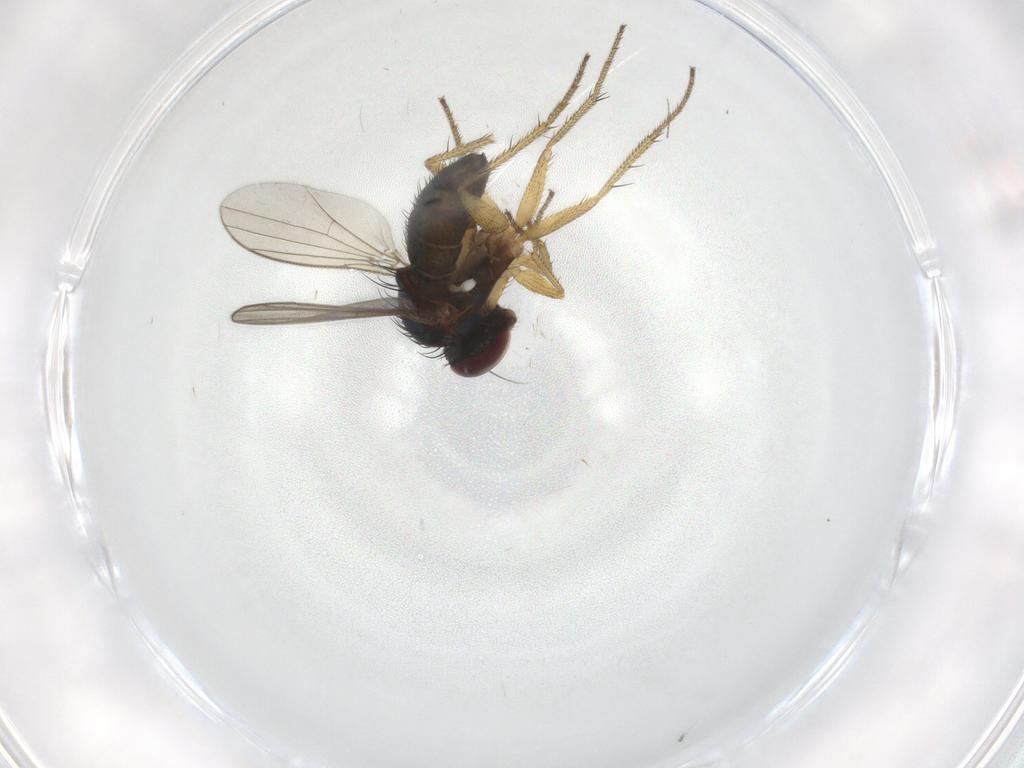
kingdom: Animalia
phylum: Arthropoda
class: Insecta
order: Diptera
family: Dolichopodidae
